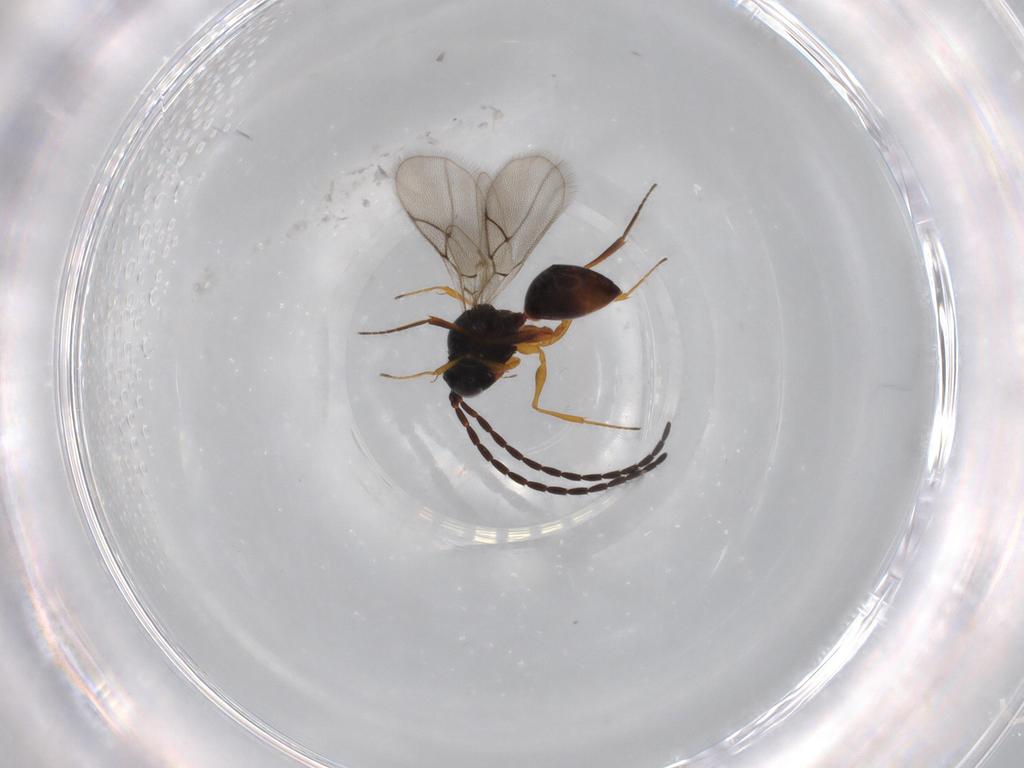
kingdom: Animalia
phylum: Arthropoda
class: Insecta
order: Hymenoptera
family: Figitidae
